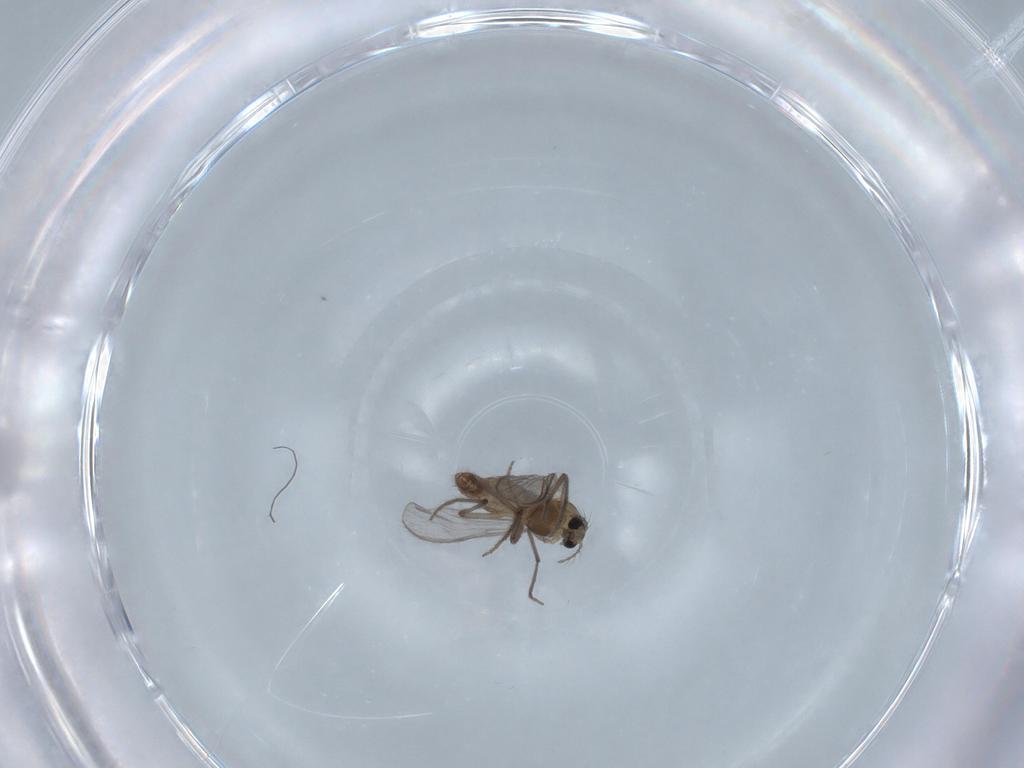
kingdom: Animalia
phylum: Arthropoda
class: Insecta
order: Diptera
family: Chironomidae
